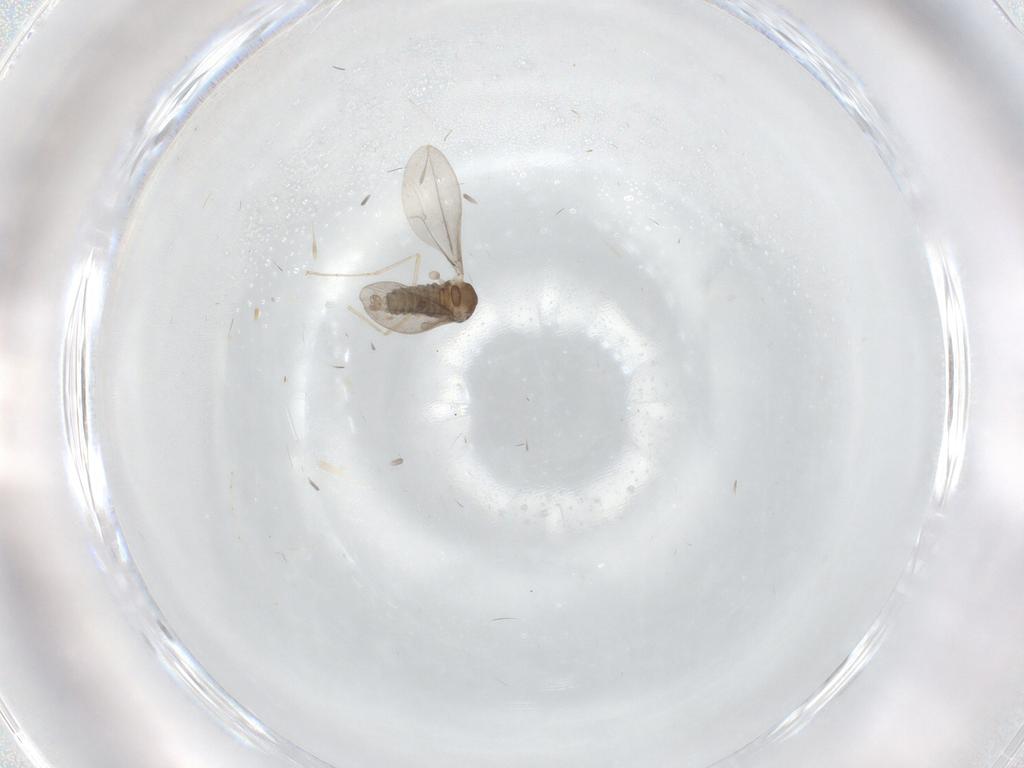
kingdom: Animalia
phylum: Arthropoda
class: Insecta
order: Diptera
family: Cecidomyiidae
